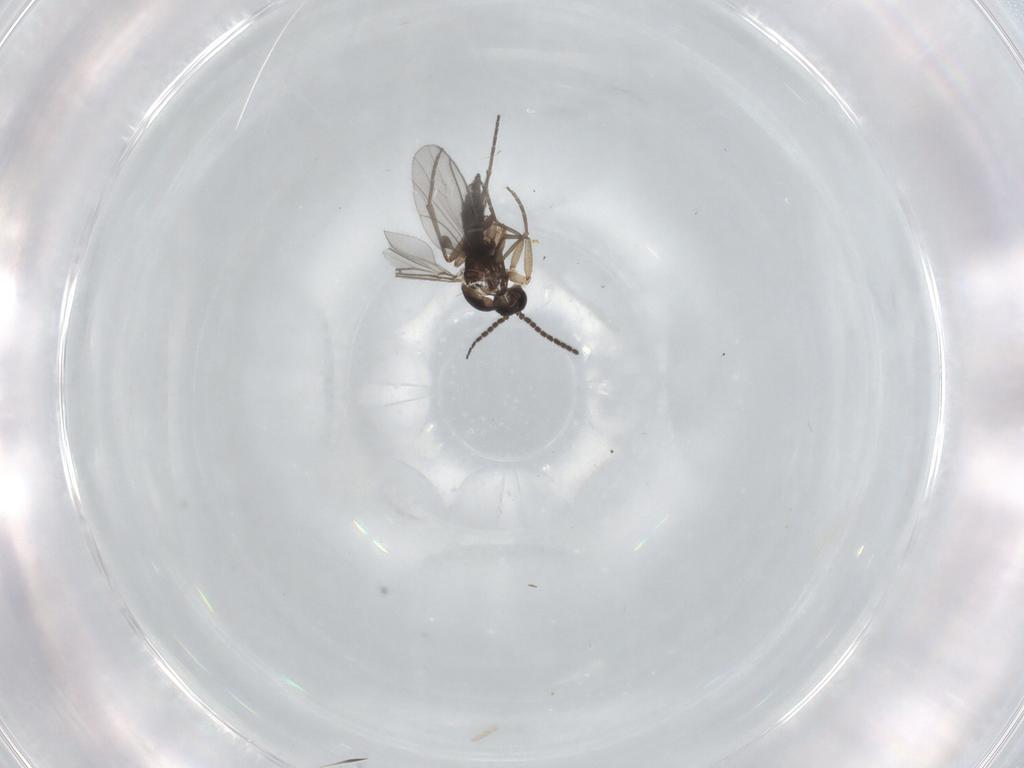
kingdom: Animalia
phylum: Arthropoda
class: Insecta
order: Diptera
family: Sciaridae
